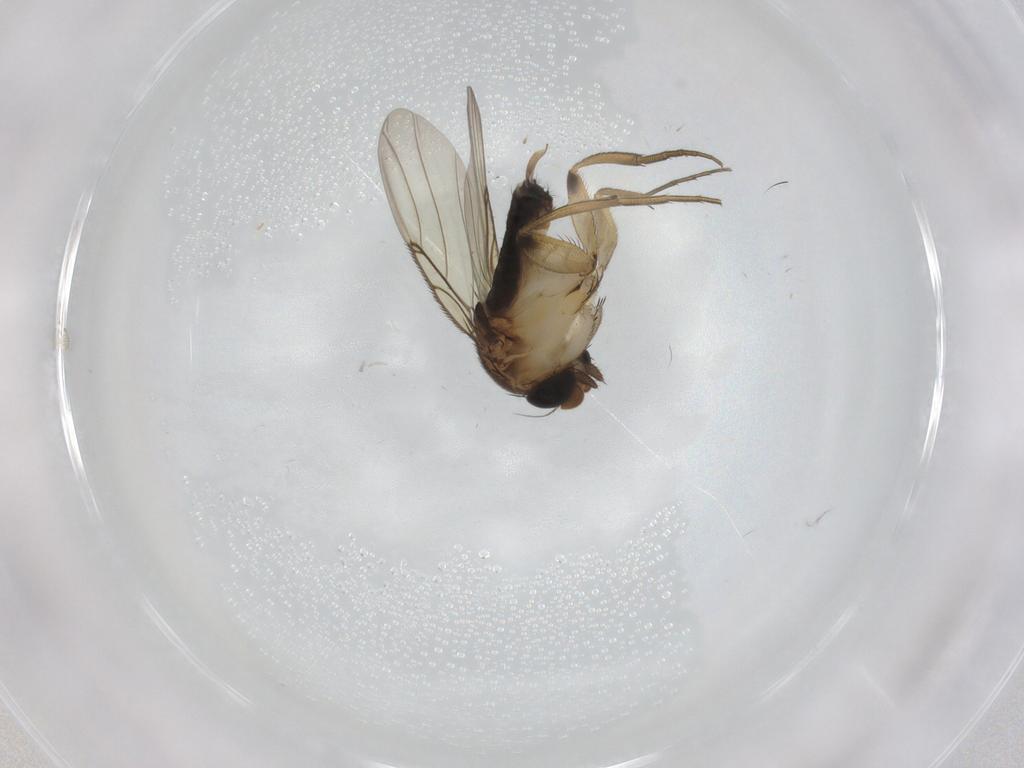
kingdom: Animalia
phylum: Arthropoda
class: Insecta
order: Diptera
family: Phoridae
